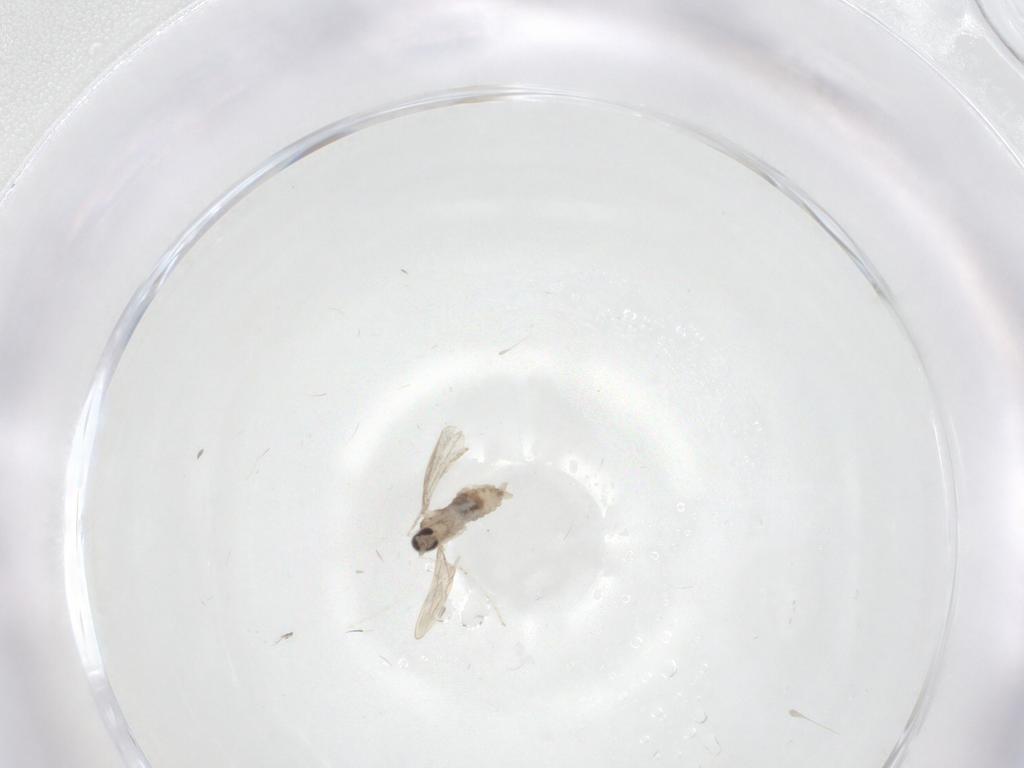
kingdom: Animalia
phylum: Arthropoda
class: Insecta
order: Diptera
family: Cecidomyiidae
